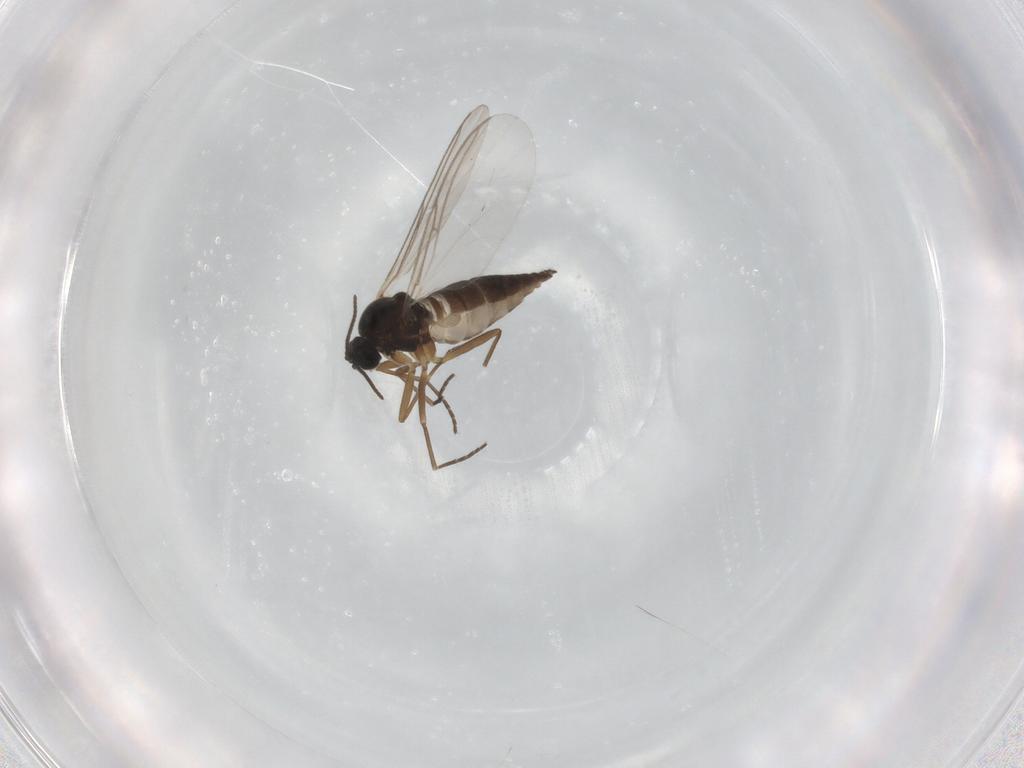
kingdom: Animalia
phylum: Arthropoda
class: Insecta
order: Diptera
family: Sciaridae
